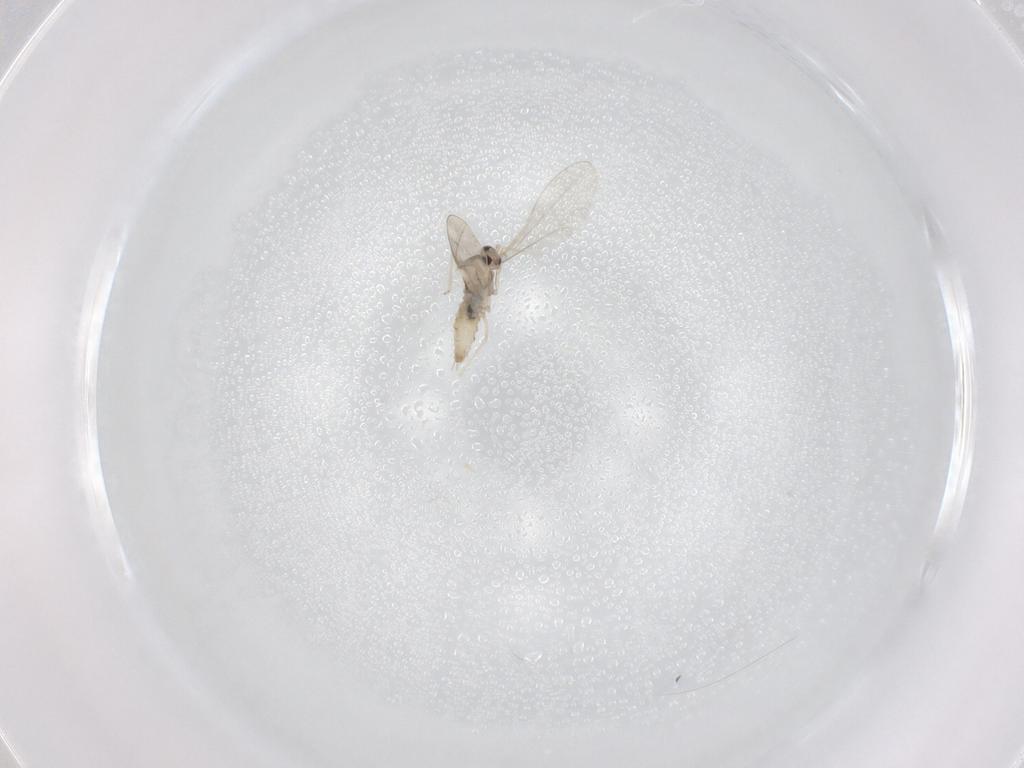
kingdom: Animalia
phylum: Arthropoda
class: Insecta
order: Diptera
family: Cecidomyiidae
